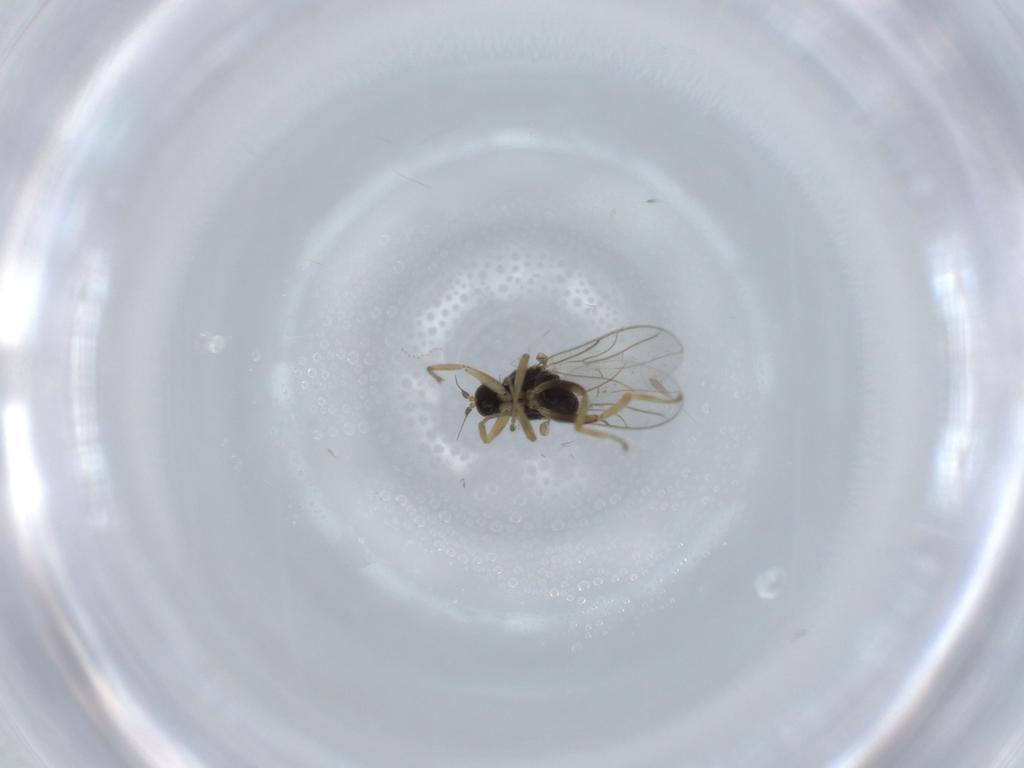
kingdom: Animalia
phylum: Arthropoda
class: Insecta
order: Diptera
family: Hybotidae
